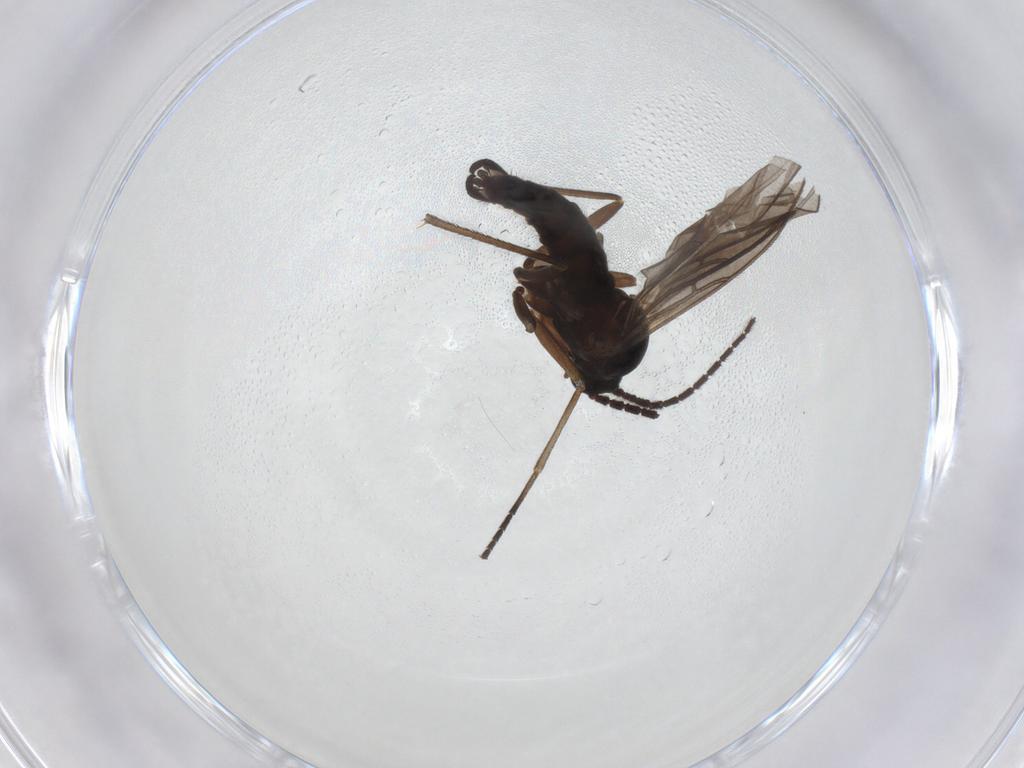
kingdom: Animalia
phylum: Arthropoda
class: Insecta
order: Diptera
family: Sciaridae
